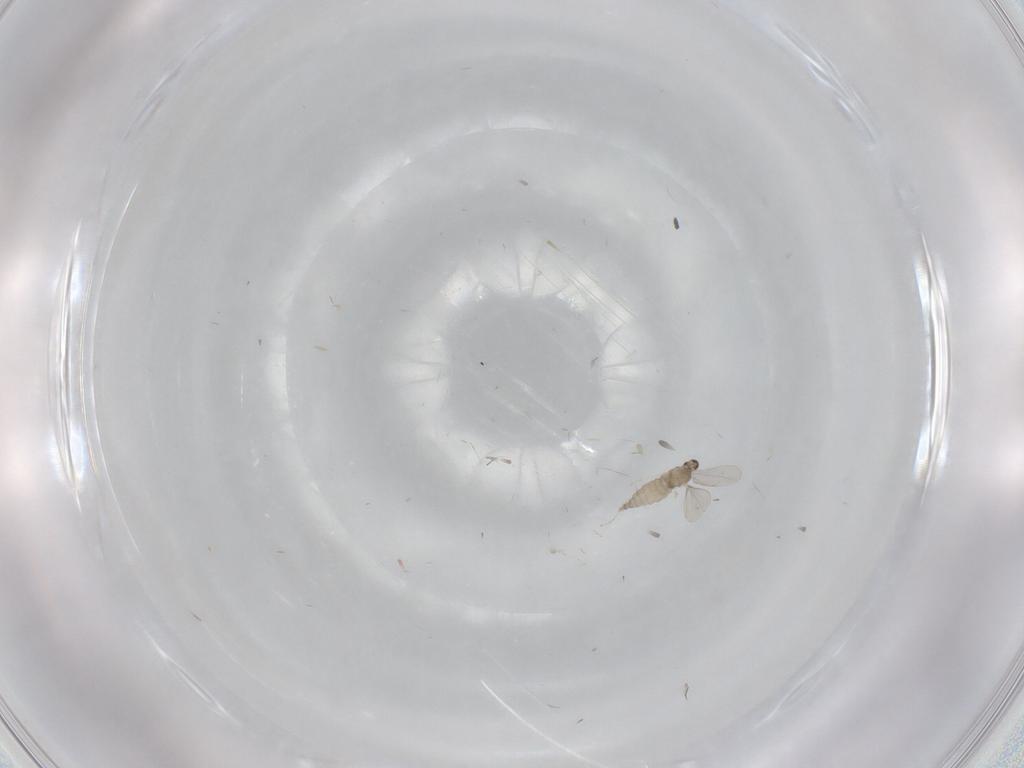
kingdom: Animalia
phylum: Arthropoda
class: Insecta
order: Diptera
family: Cecidomyiidae
